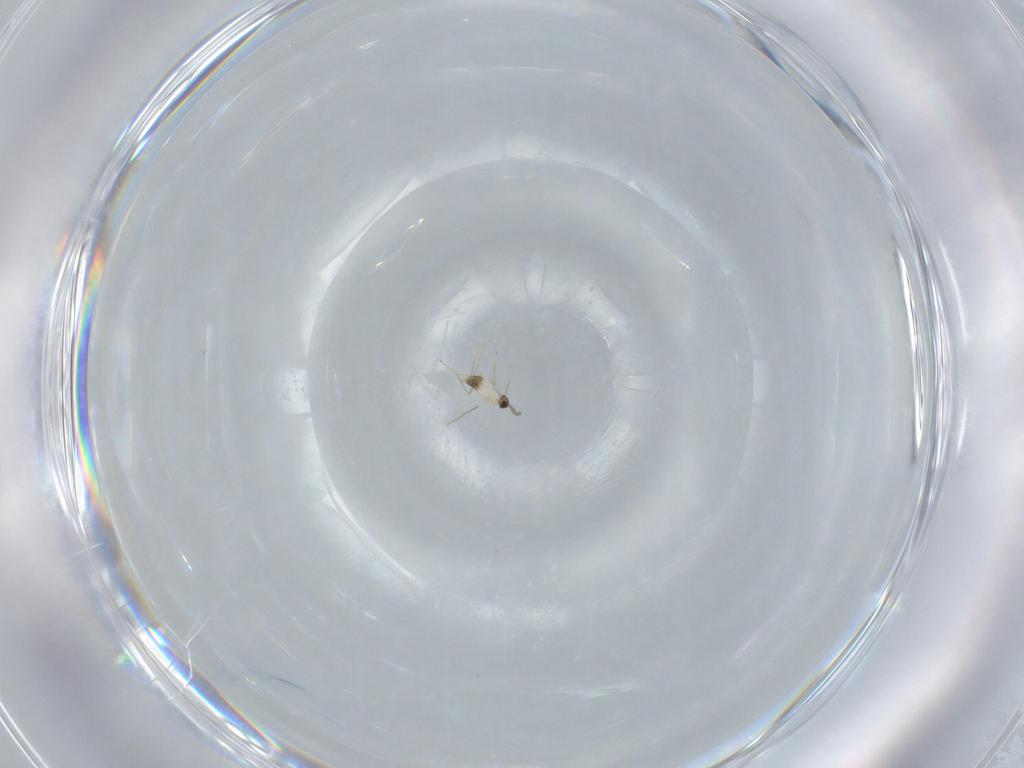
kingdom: Animalia
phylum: Arthropoda
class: Insecta
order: Hymenoptera
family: Mymaridae
